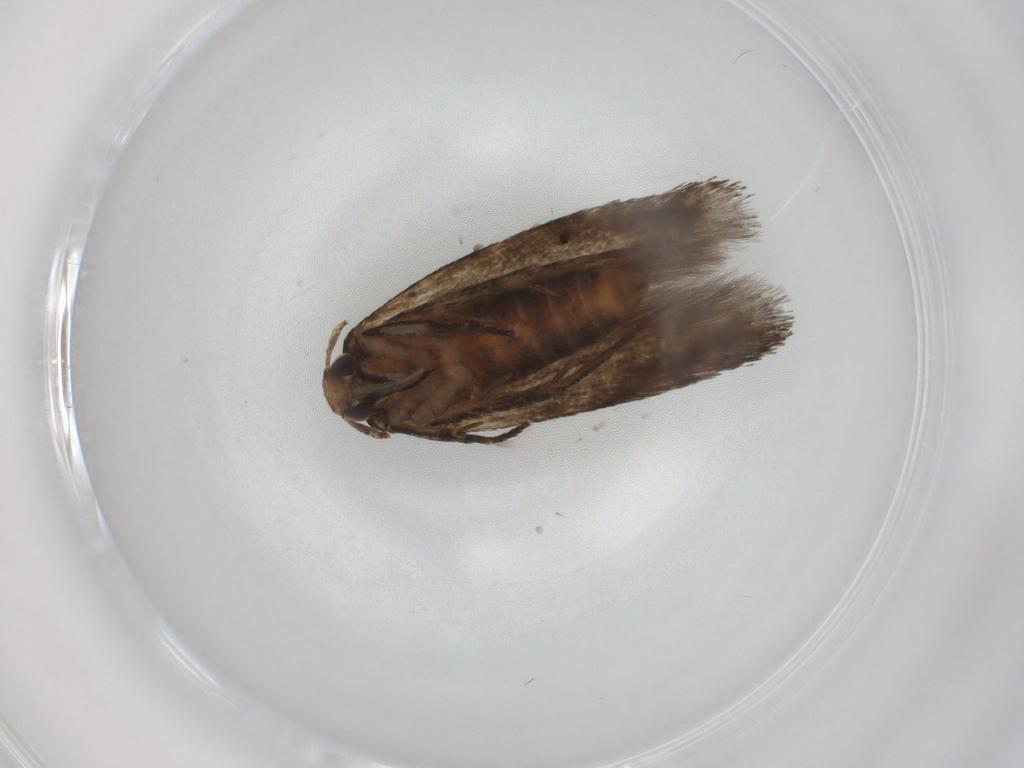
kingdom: Animalia
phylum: Arthropoda
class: Insecta
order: Lepidoptera
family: Cosmopterigidae
